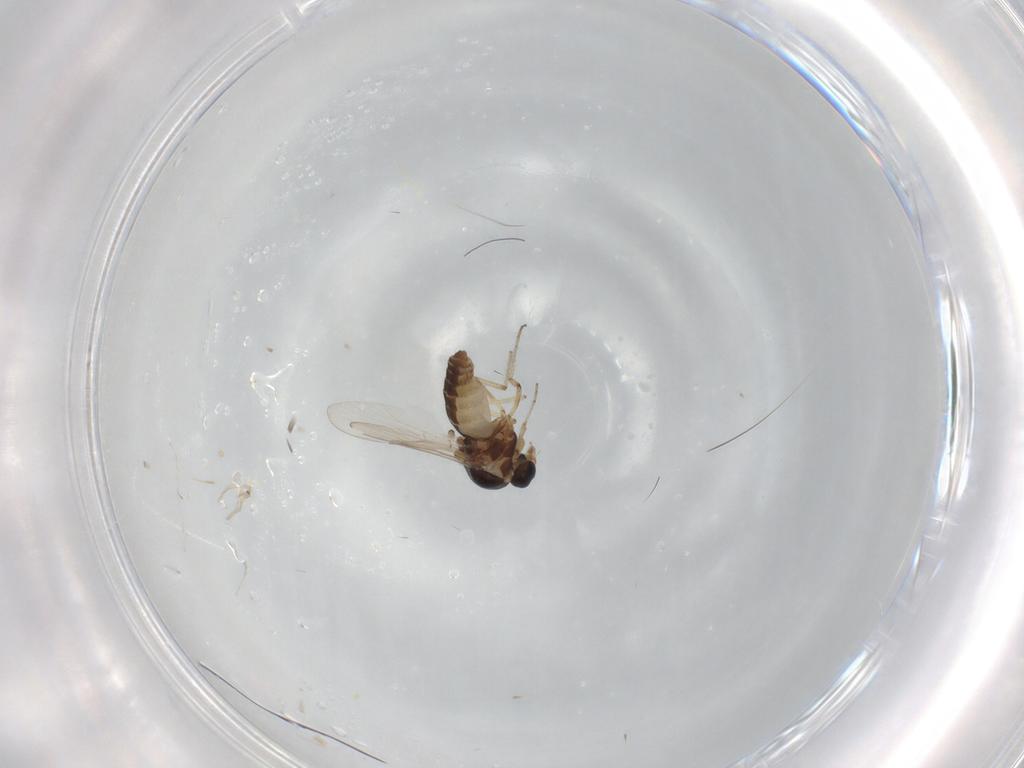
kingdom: Animalia
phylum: Arthropoda
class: Insecta
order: Diptera
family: Ceratopogonidae
